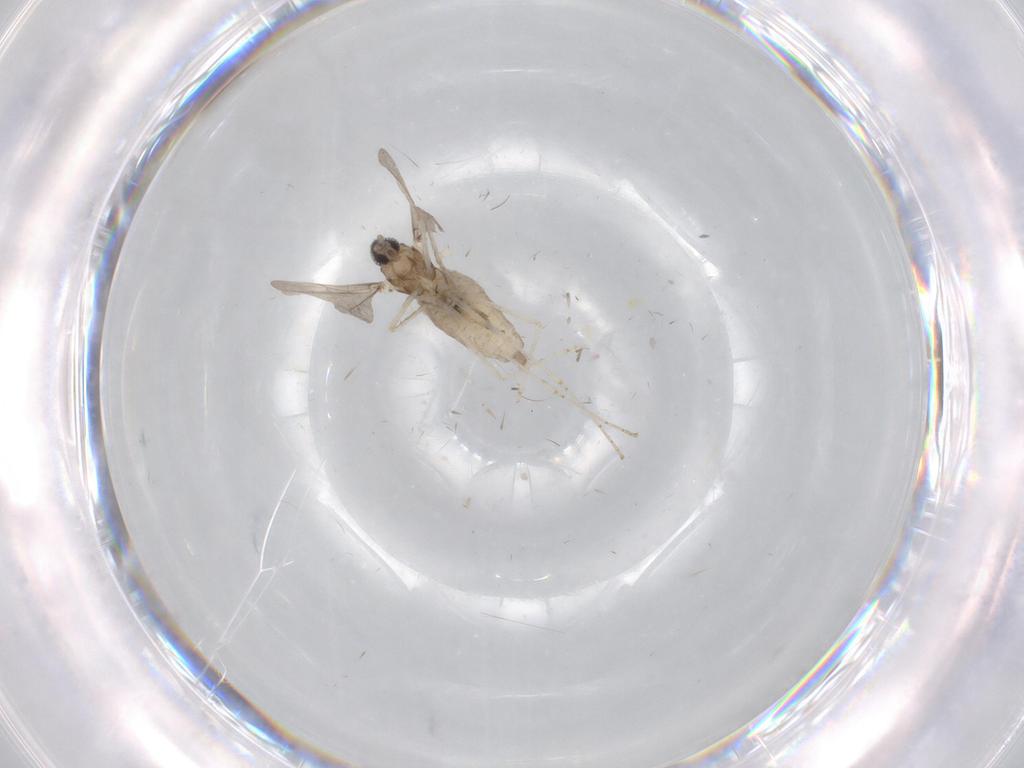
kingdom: Animalia
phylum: Arthropoda
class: Insecta
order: Diptera
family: Cecidomyiidae
